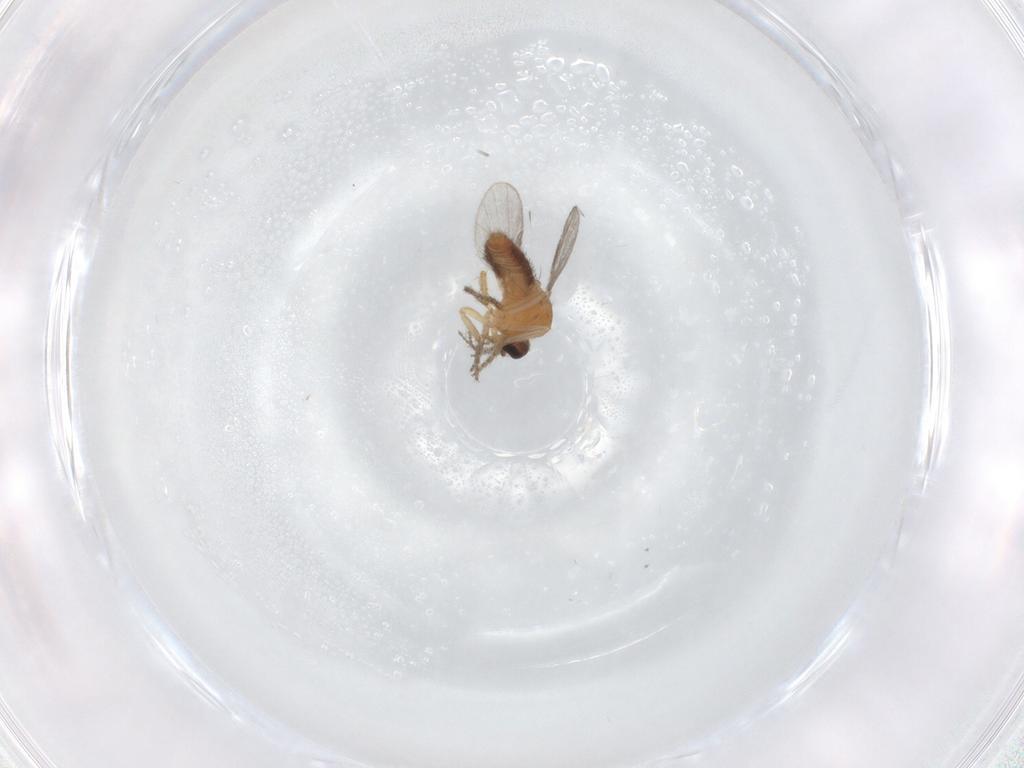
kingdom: Animalia
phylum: Arthropoda
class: Insecta
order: Diptera
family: Ceratopogonidae
